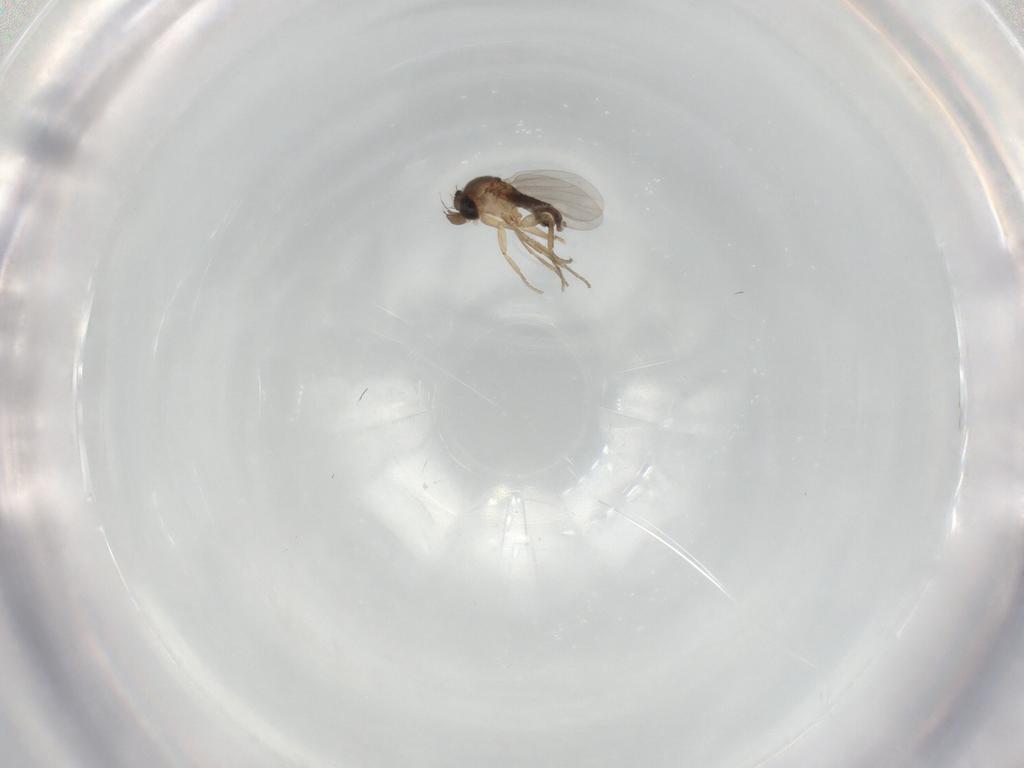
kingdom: Animalia
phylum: Arthropoda
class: Insecta
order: Diptera
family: Phoridae
